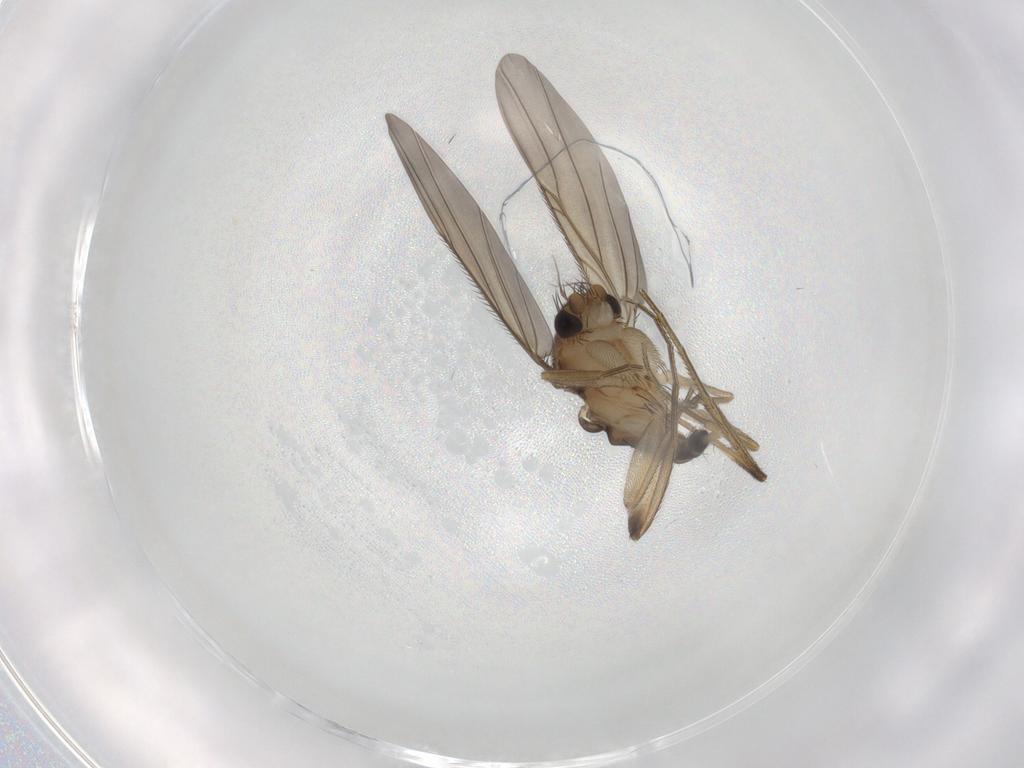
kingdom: Animalia
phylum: Arthropoda
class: Insecta
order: Diptera
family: Phoridae
